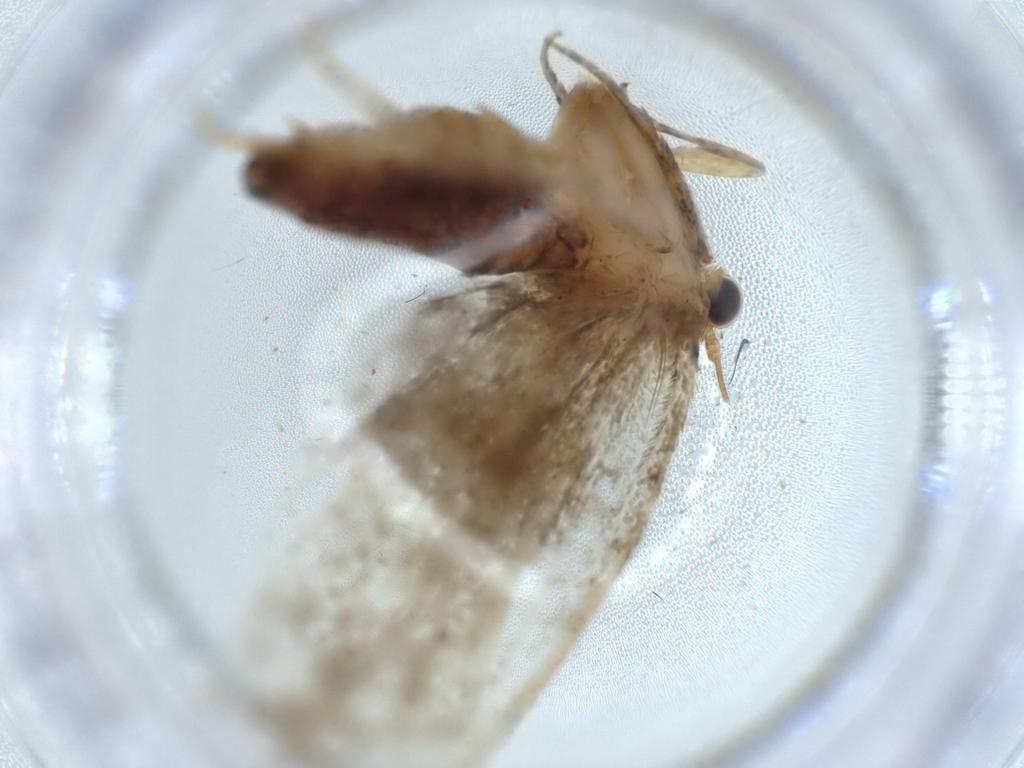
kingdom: Animalia
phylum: Arthropoda
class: Insecta
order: Lepidoptera
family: Tineidae
